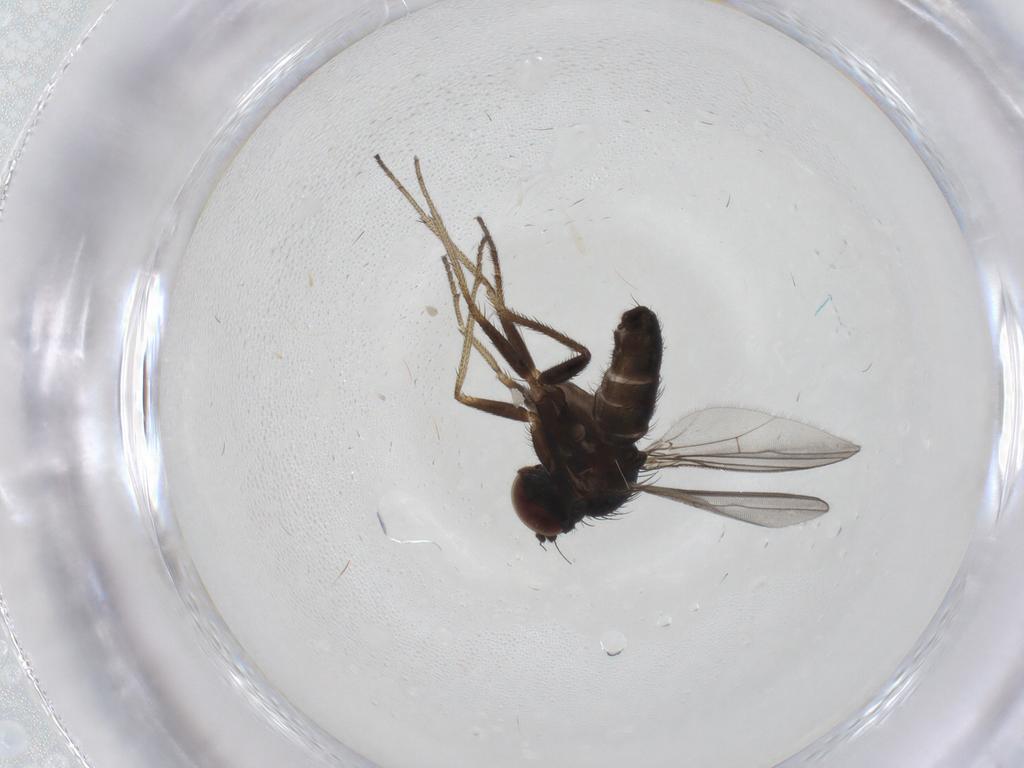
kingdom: Animalia
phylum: Arthropoda
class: Insecta
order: Diptera
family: Dolichopodidae
